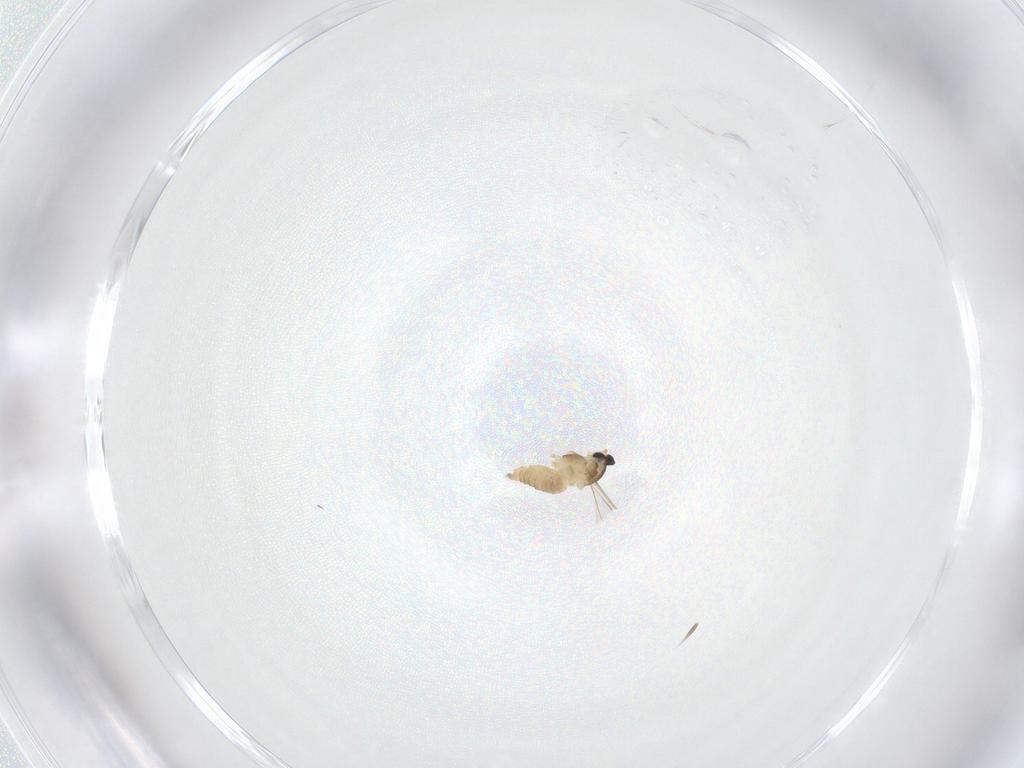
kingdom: Animalia
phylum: Arthropoda
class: Insecta
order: Diptera
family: Cecidomyiidae
